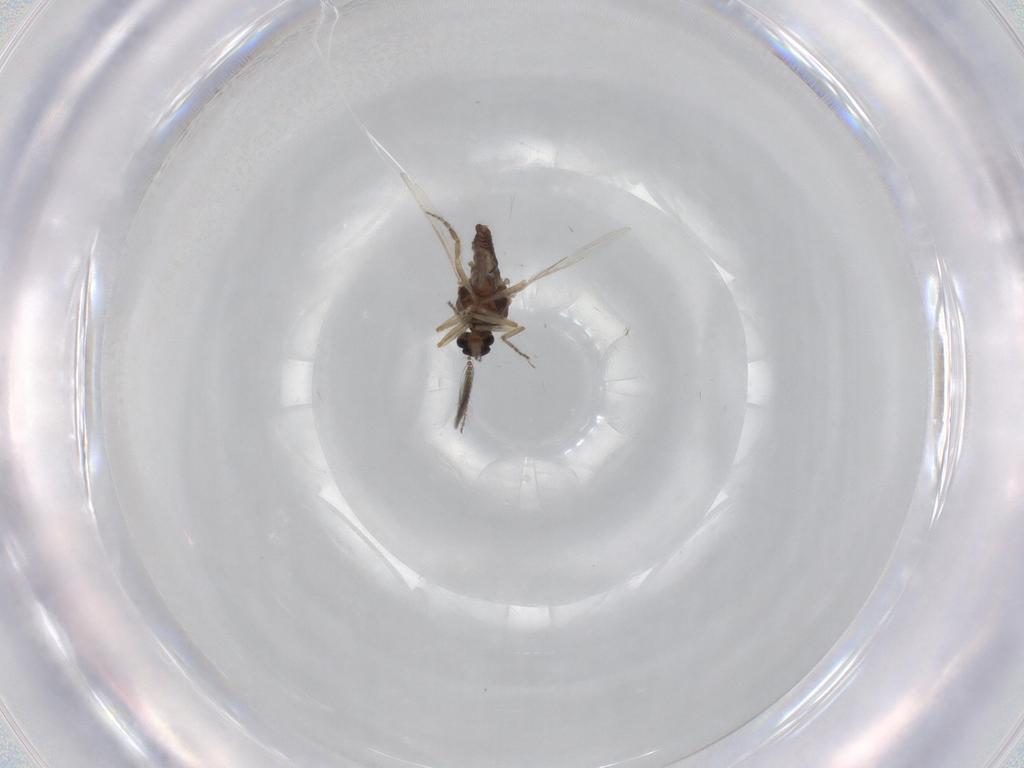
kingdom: Animalia
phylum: Arthropoda
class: Insecta
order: Diptera
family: Ceratopogonidae
